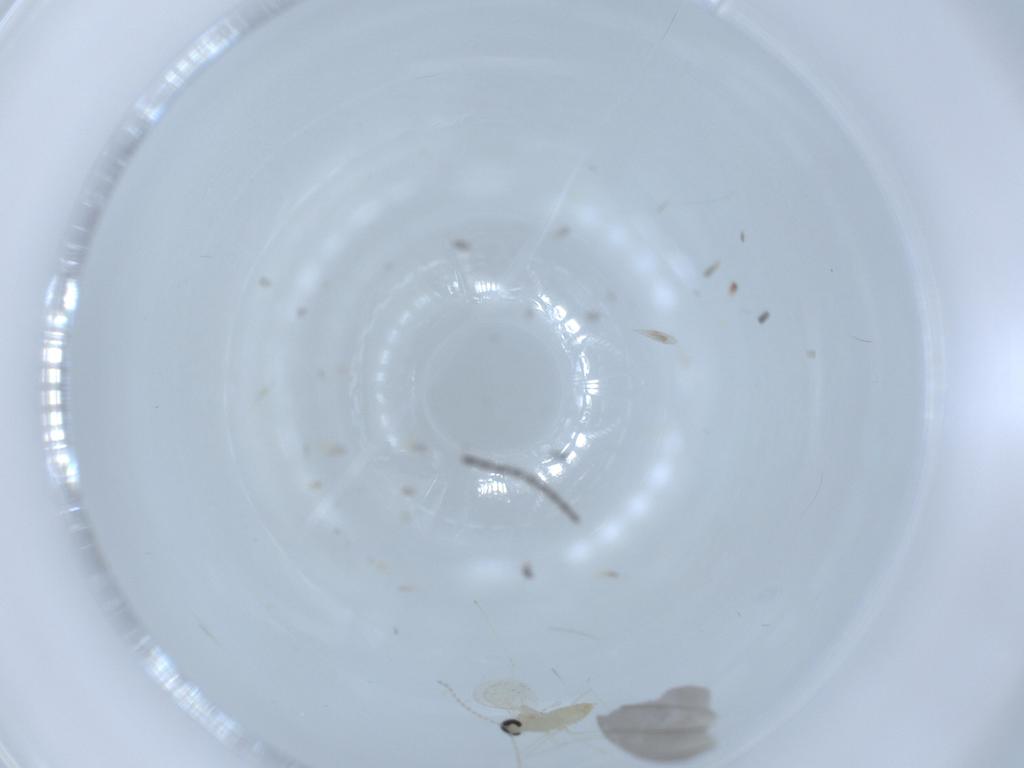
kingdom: Animalia
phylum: Arthropoda
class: Insecta
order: Diptera
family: Cecidomyiidae
